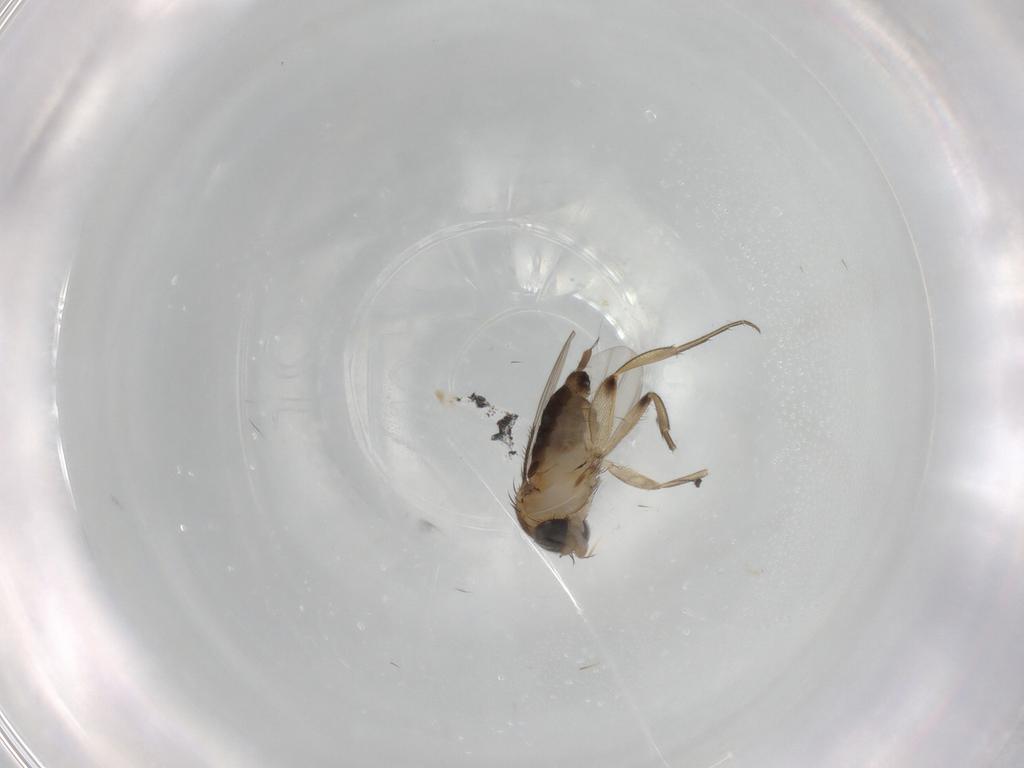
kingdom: Animalia
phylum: Arthropoda
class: Insecta
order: Diptera
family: Phoridae
